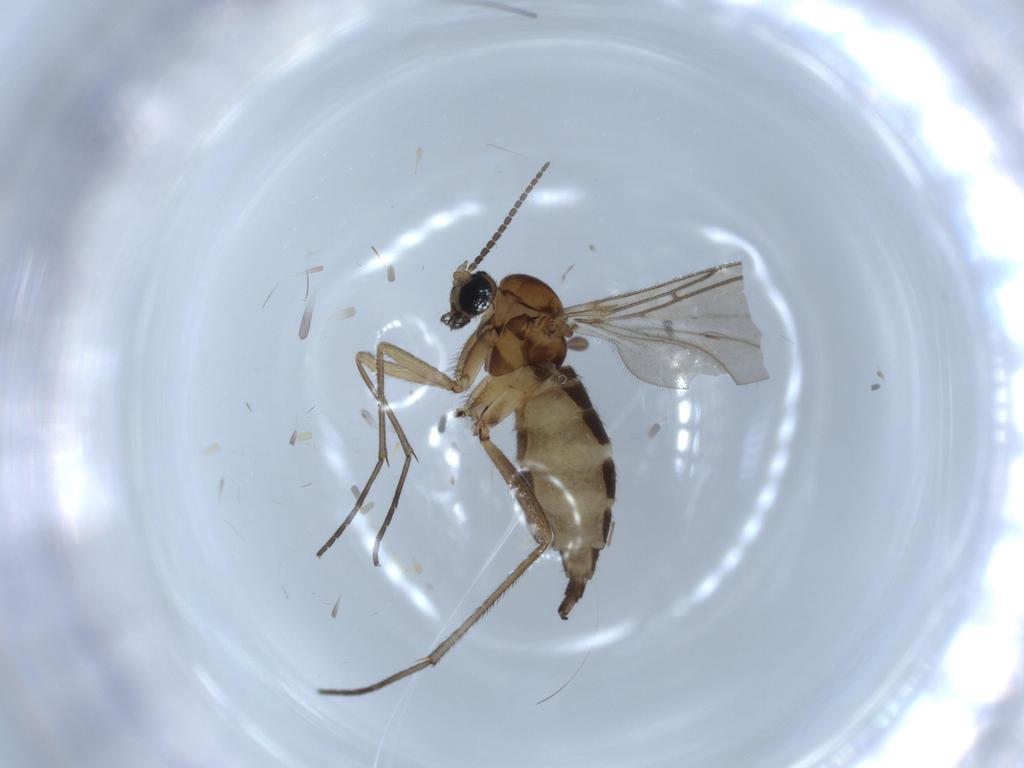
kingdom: Animalia
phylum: Arthropoda
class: Insecta
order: Diptera
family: Sciaridae
